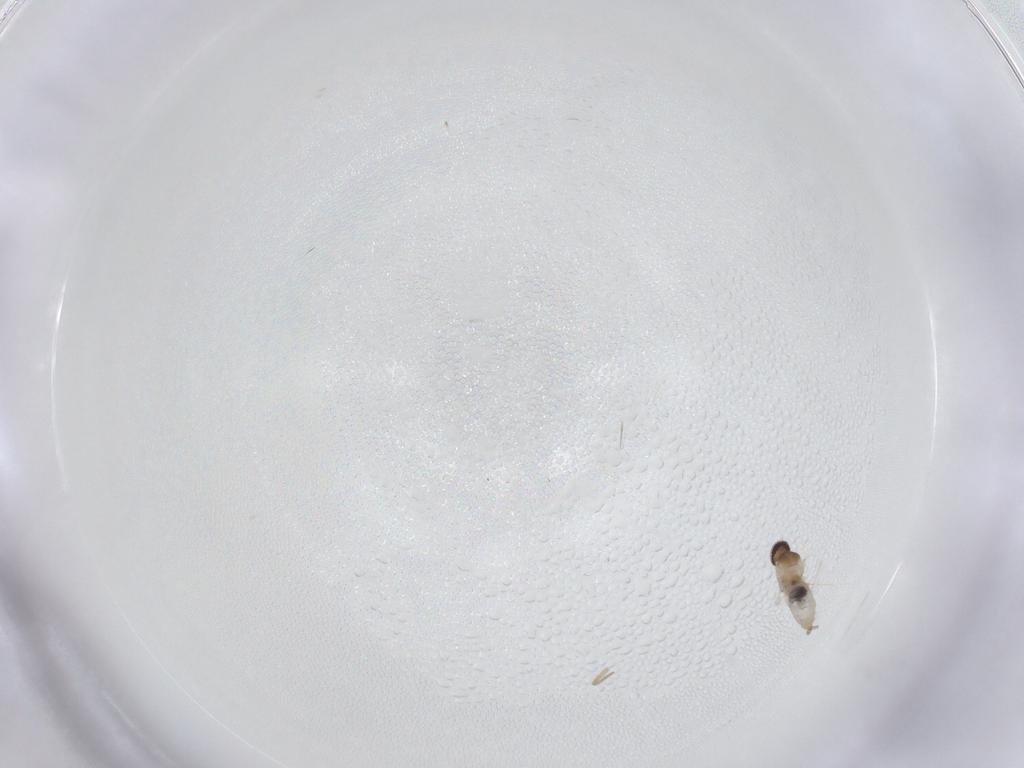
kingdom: Animalia
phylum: Arthropoda
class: Insecta
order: Diptera
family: Cecidomyiidae
